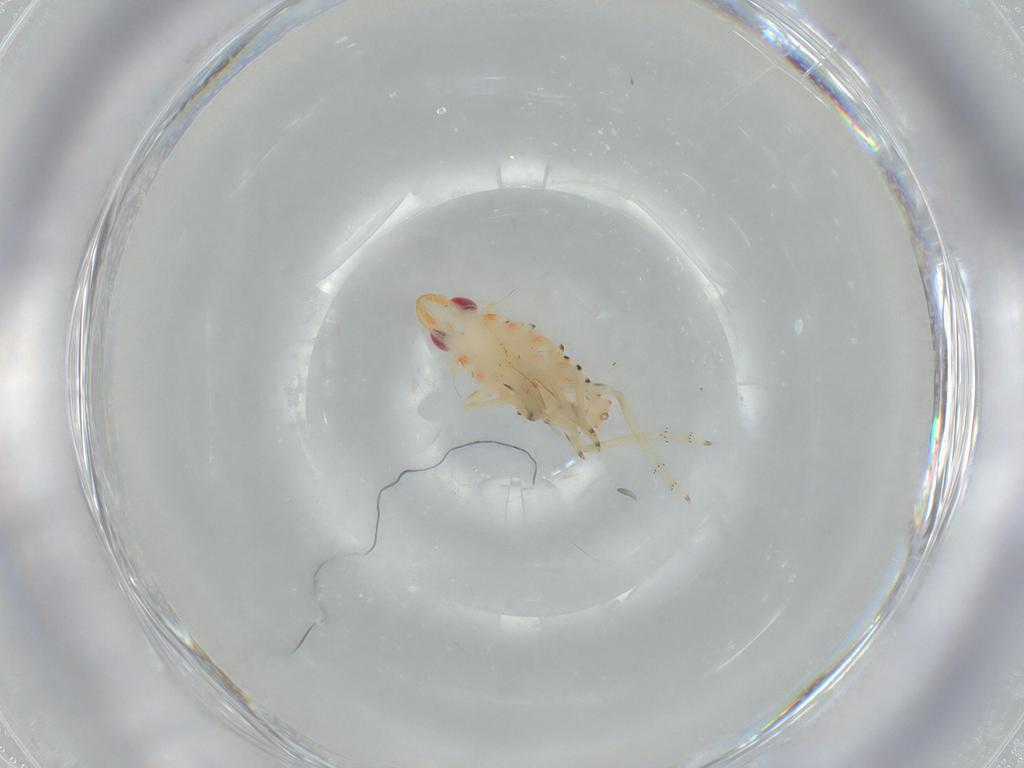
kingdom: Animalia
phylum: Arthropoda
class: Insecta
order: Hemiptera
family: Tropiduchidae
